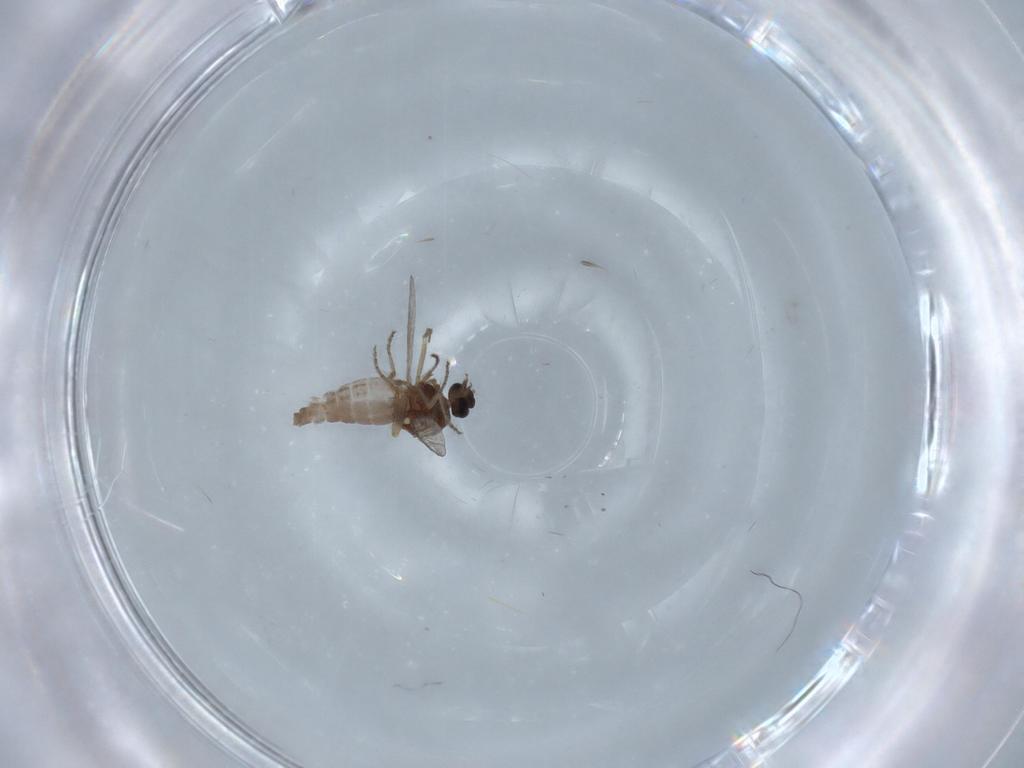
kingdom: Animalia
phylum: Arthropoda
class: Insecta
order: Diptera
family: Ceratopogonidae
